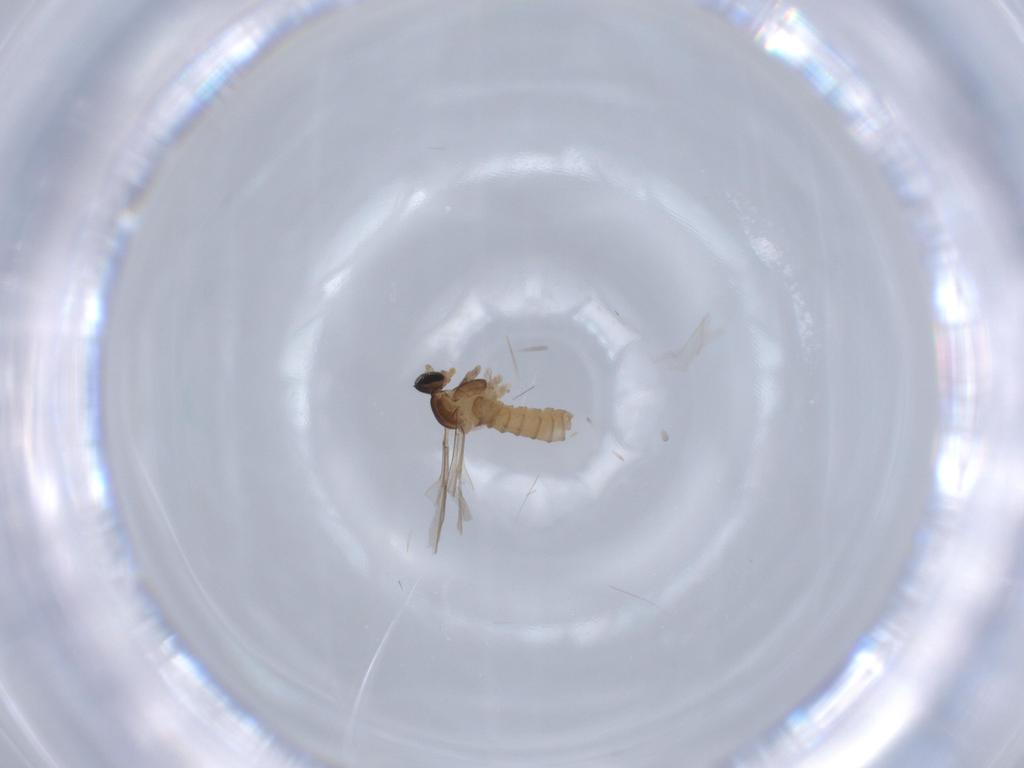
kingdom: Animalia
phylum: Arthropoda
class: Insecta
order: Diptera
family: Cecidomyiidae
